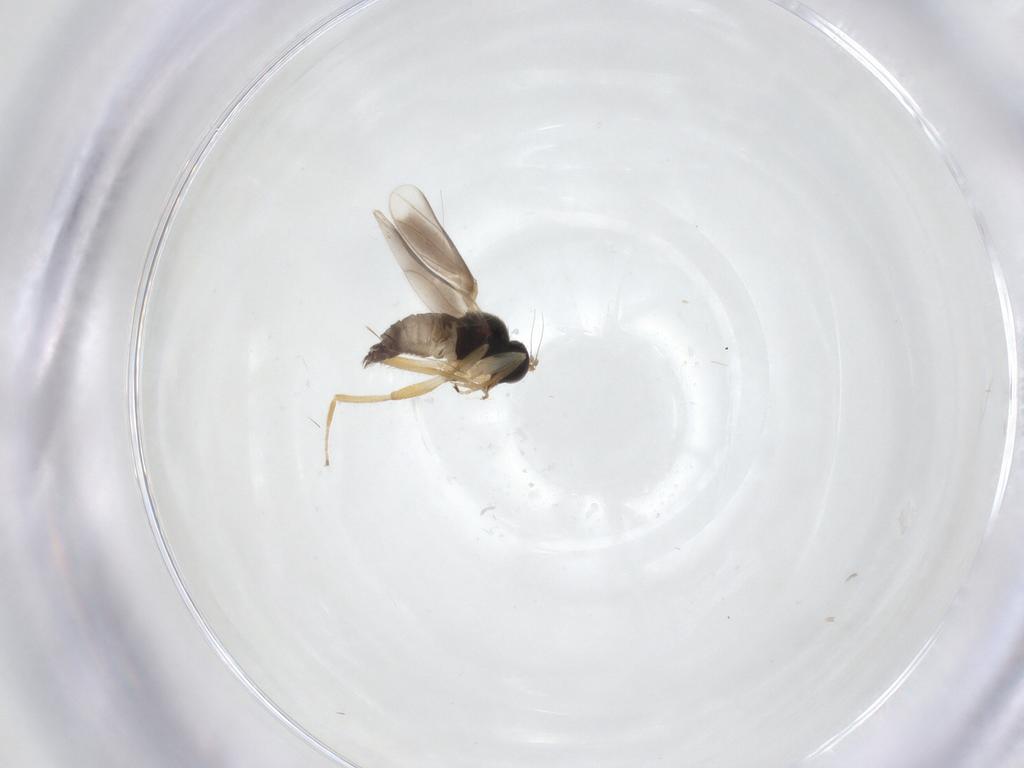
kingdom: Animalia
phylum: Arthropoda
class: Insecta
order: Diptera
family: Hybotidae
